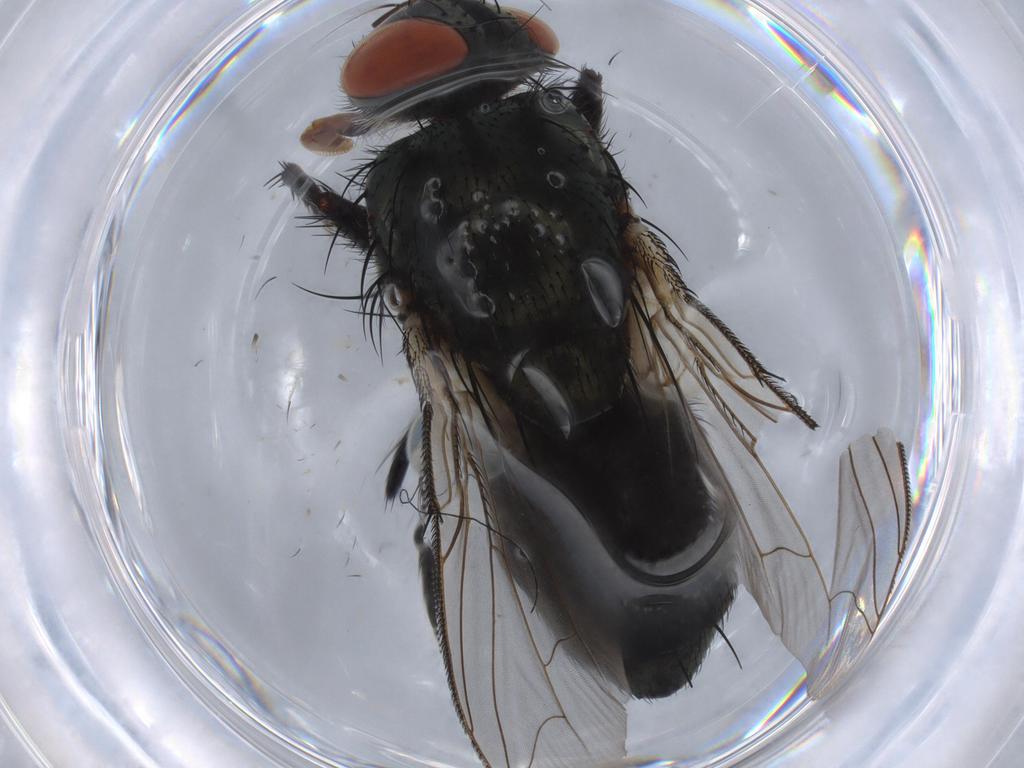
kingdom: Animalia
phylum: Arthropoda
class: Insecta
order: Diptera
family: Sarcophagidae
